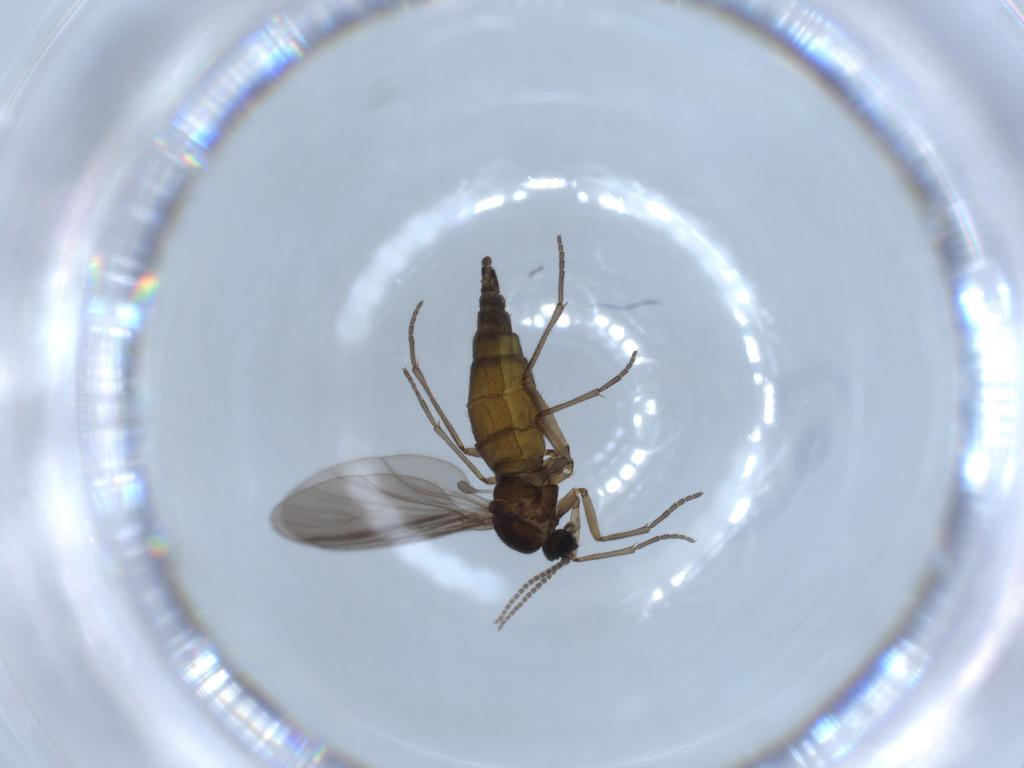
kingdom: Animalia
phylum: Arthropoda
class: Insecta
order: Diptera
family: Sciaridae
